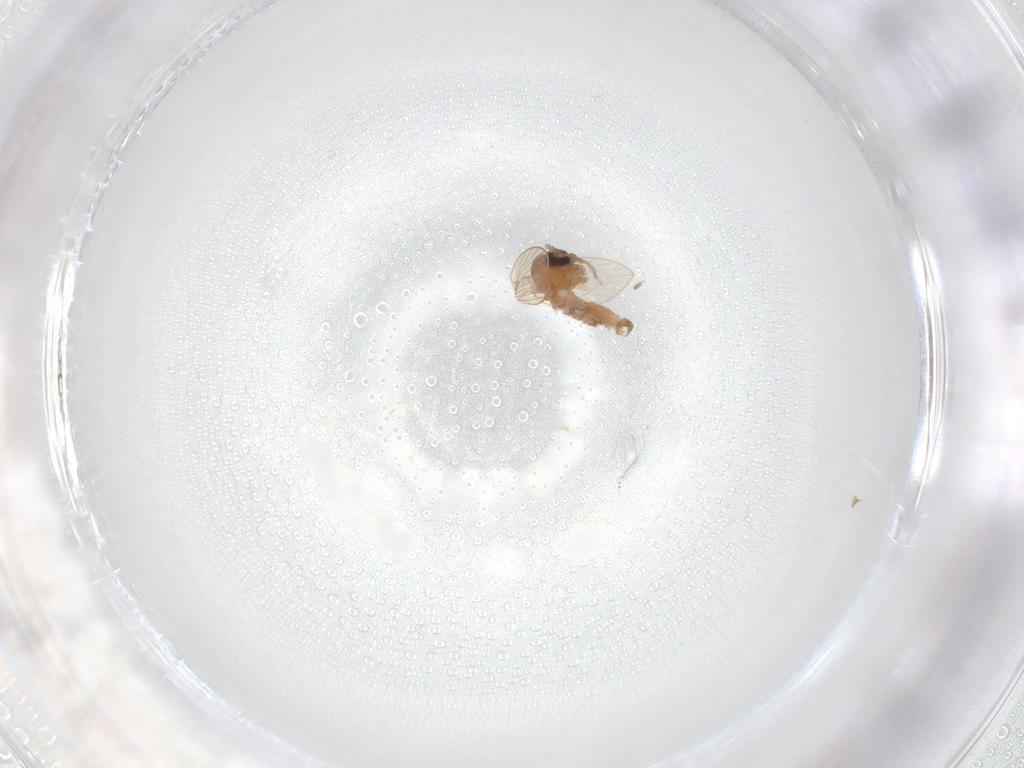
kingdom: Animalia
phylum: Arthropoda
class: Insecta
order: Diptera
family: Psychodidae
